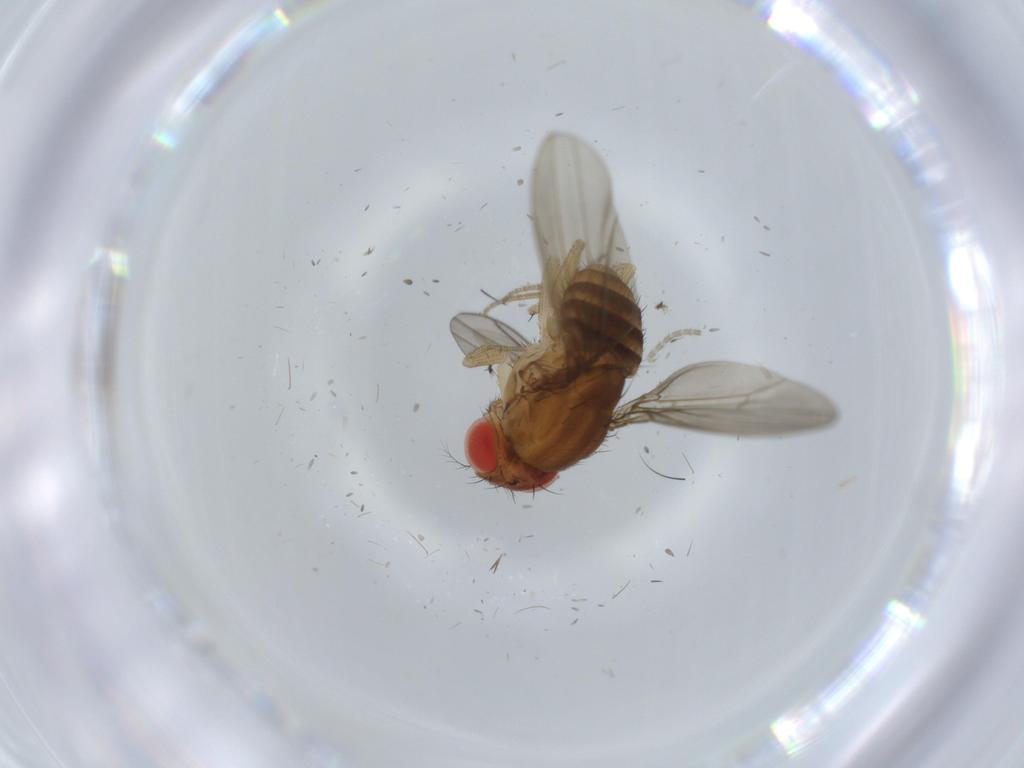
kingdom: Animalia
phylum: Arthropoda
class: Insecta
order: Diptera
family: Drosophilidae
